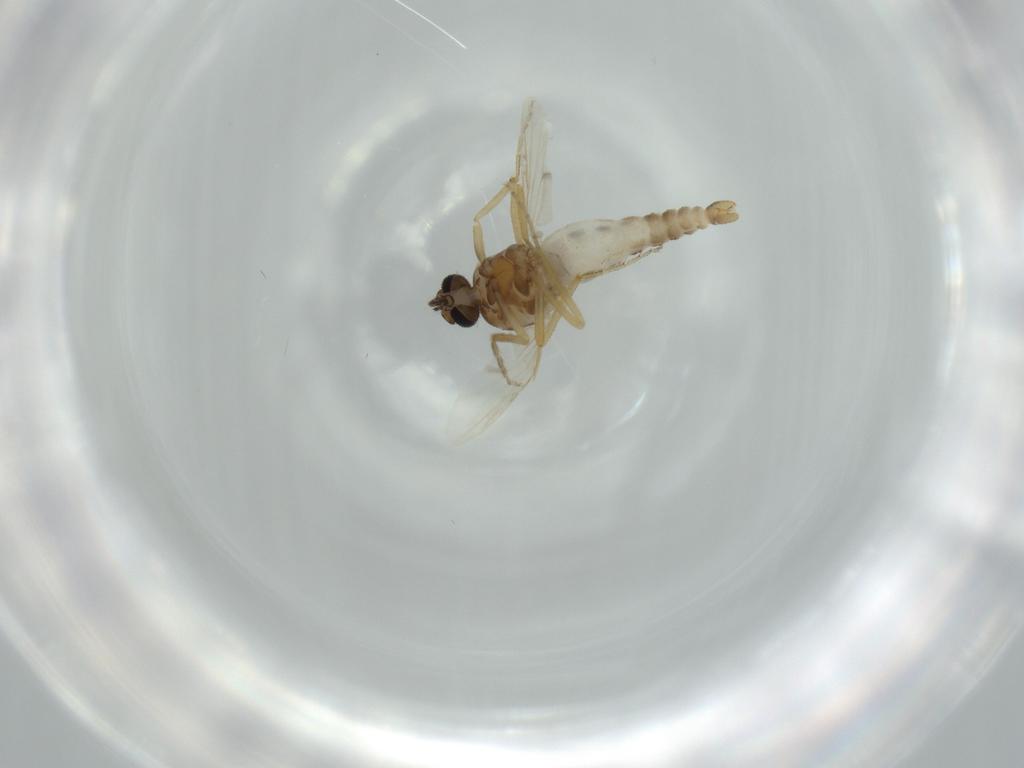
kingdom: Animalia
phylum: Arthropoda
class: Insecta
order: Diptera
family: Ceratopogonidae
